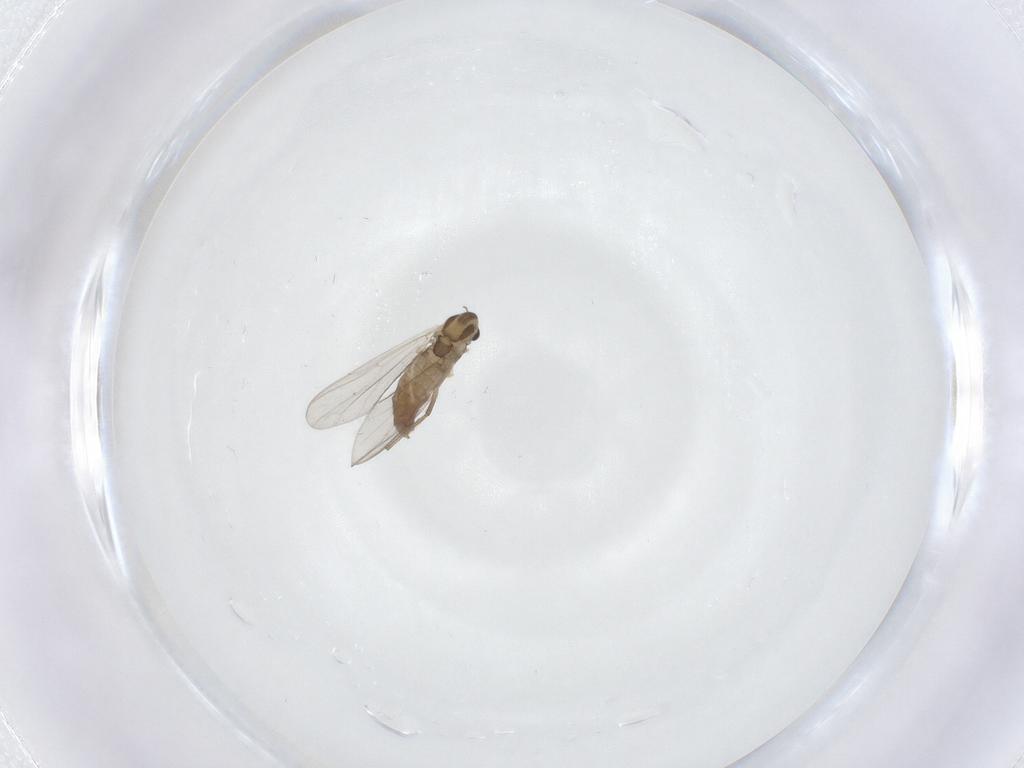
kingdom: Animalia
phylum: Arthropoda
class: Insecta
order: Diptera
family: Chironomidae
